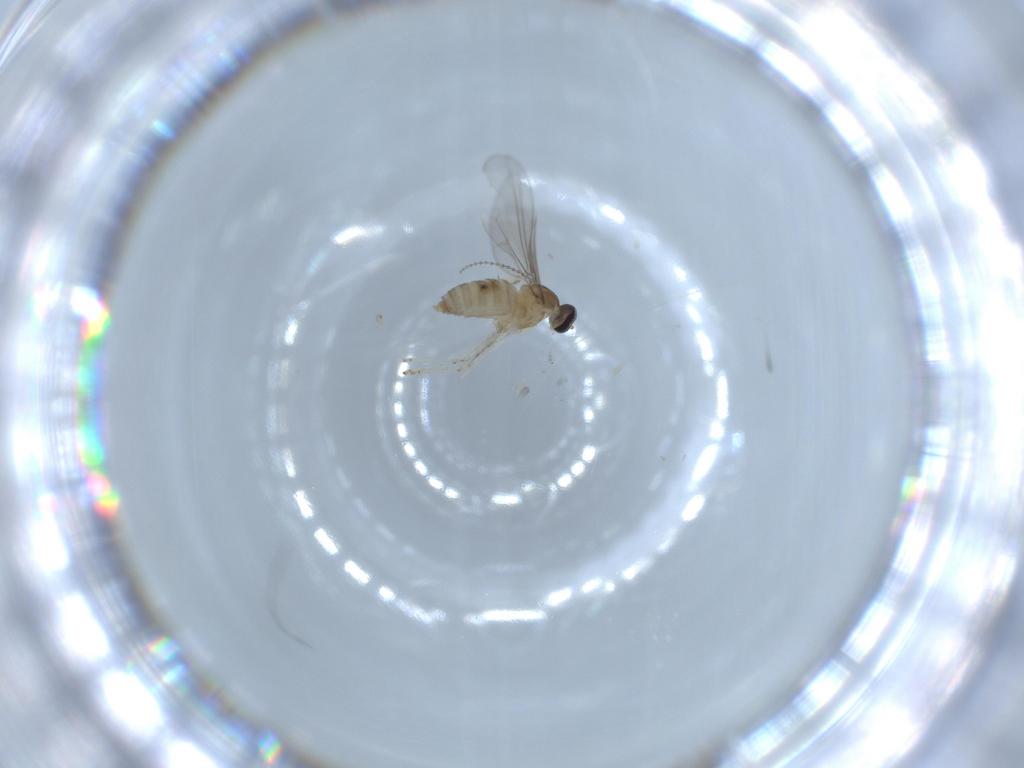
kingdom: Animalia
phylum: Arthropoda
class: Insecta
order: Diptera
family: Cecidomyiidae
